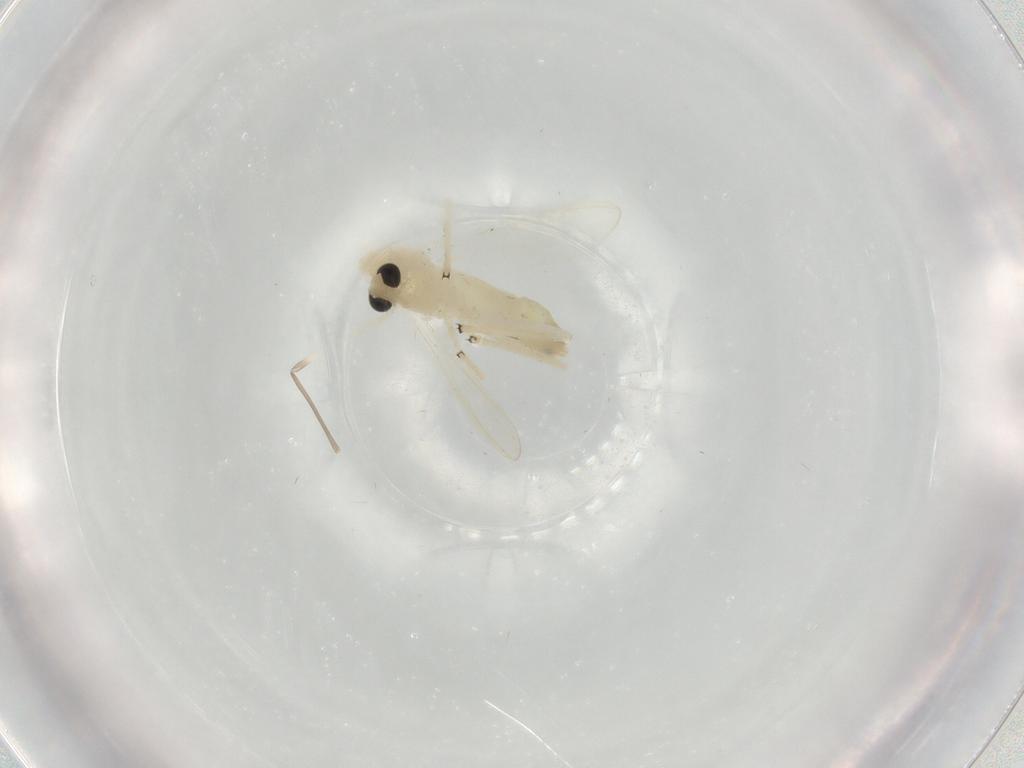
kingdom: Animalia
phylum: Arthropoda
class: Insecta
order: Diptera
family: Chironomidae
